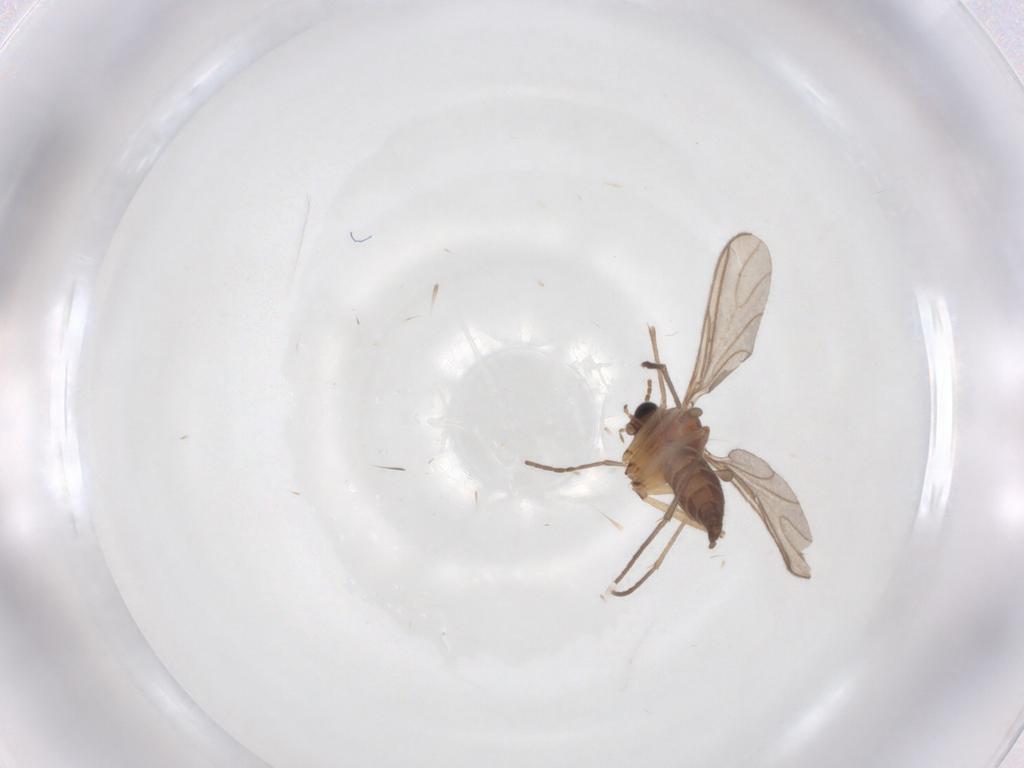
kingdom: Animalia
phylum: Arthropoda
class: Insecta
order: Diptera
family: Sciaridae
